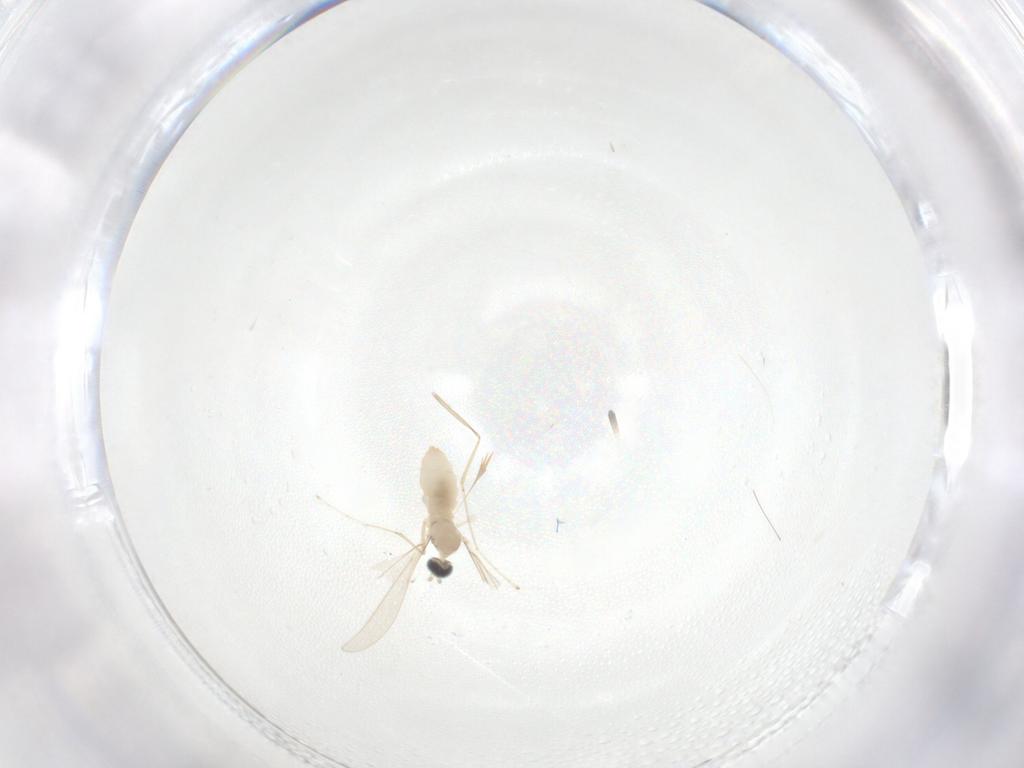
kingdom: Animalia
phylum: Arthropoda
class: Insecta
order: Diptera
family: Cecidomyiidae
